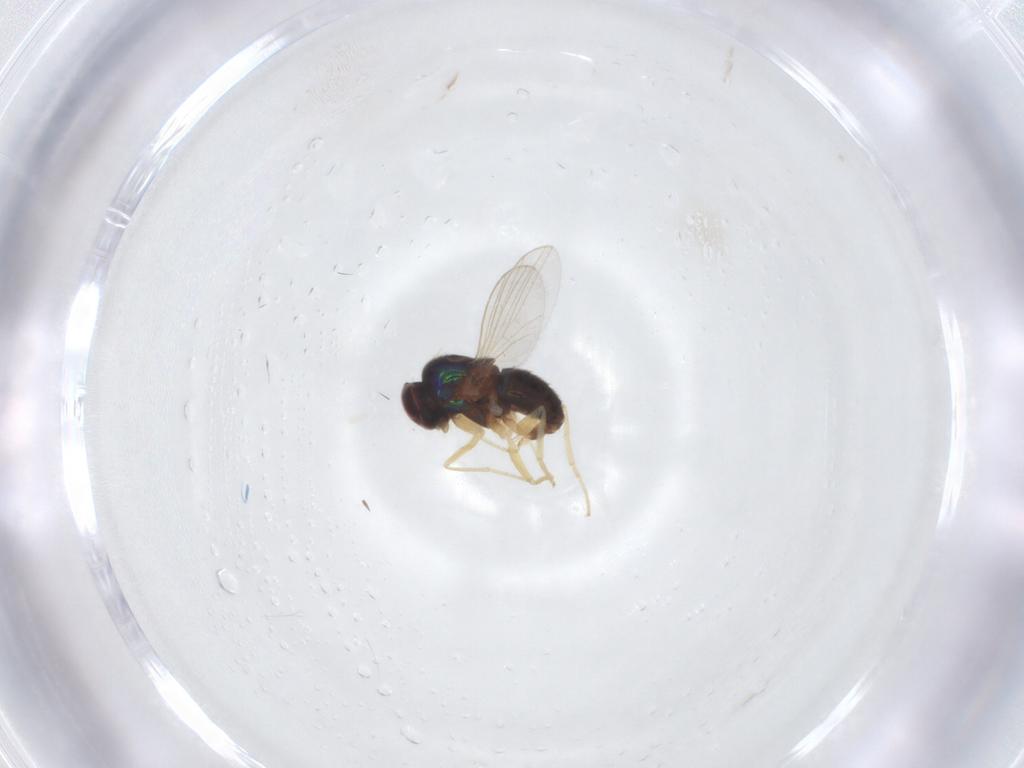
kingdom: Animalia
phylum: Arthropoda
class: Insecta
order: Diptera
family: Dolichopodidae
